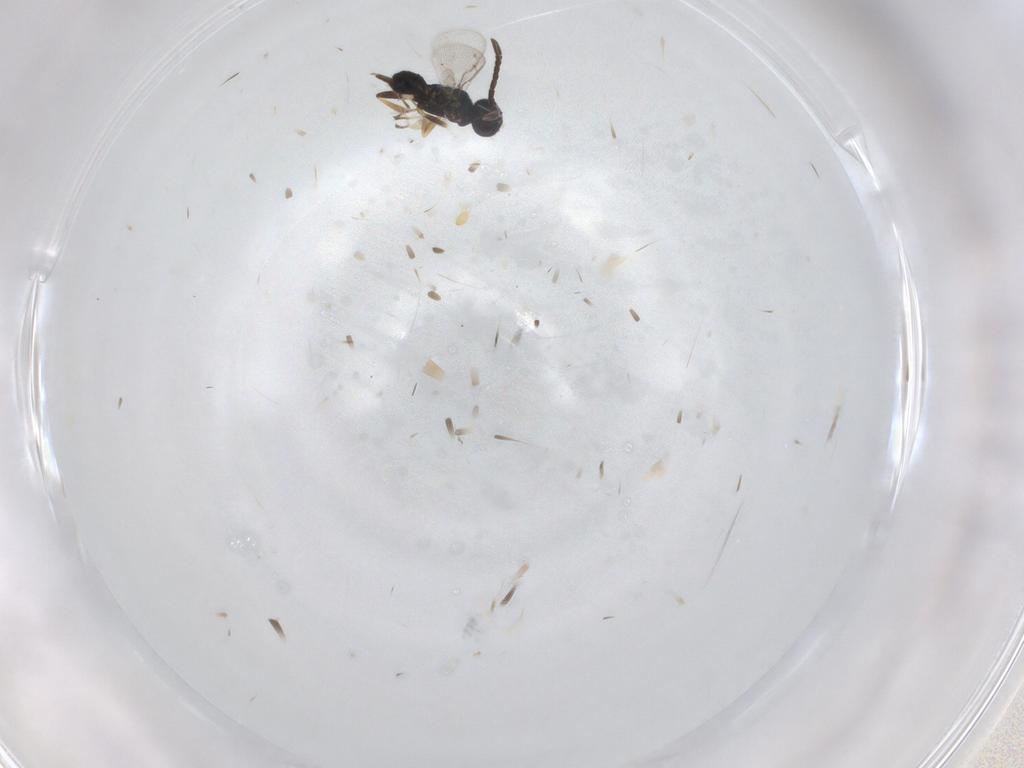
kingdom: Animalia
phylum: Arthropoda
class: Insecta
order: Hymenoptera
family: Eupelmidae
